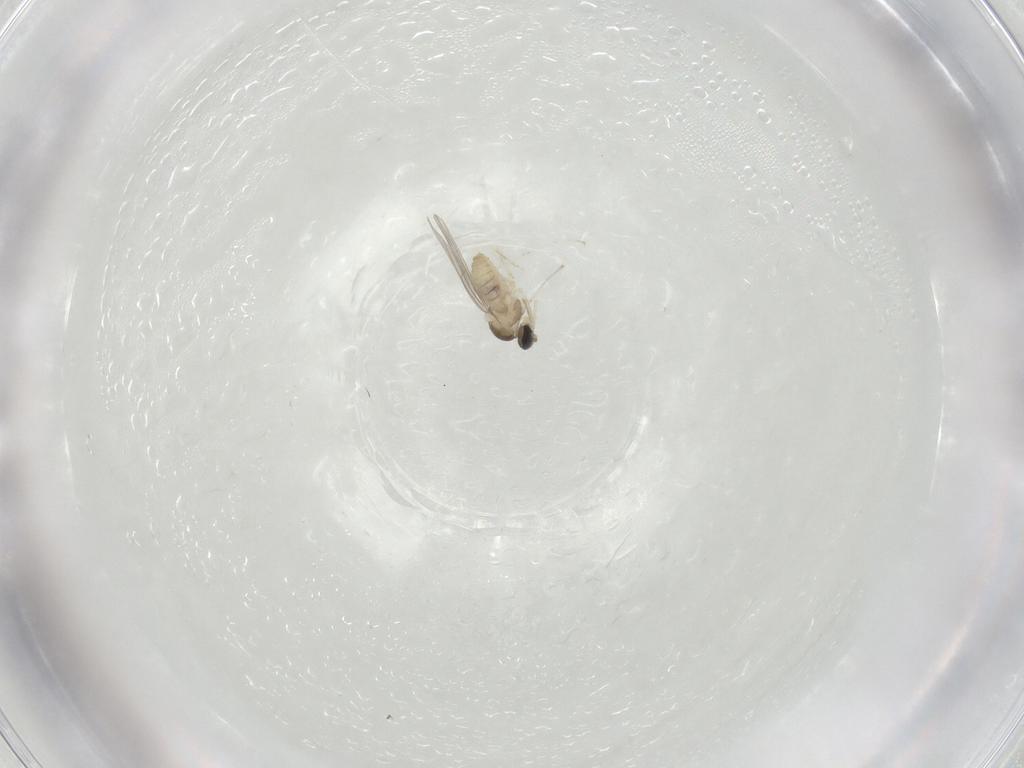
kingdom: Animalia
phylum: Arthropoda
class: Insecta
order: Diptera
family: Cecidomyiidae
